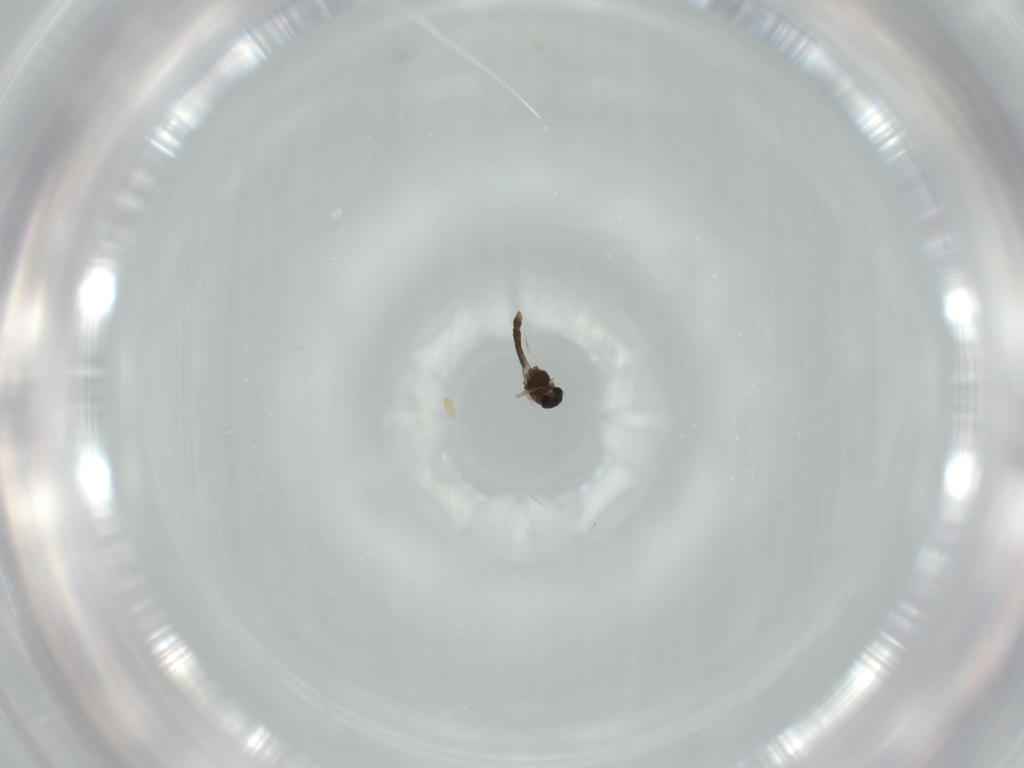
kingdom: Animalia
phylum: Arthropoda
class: Insecta
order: Diptera
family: Chironomidae
